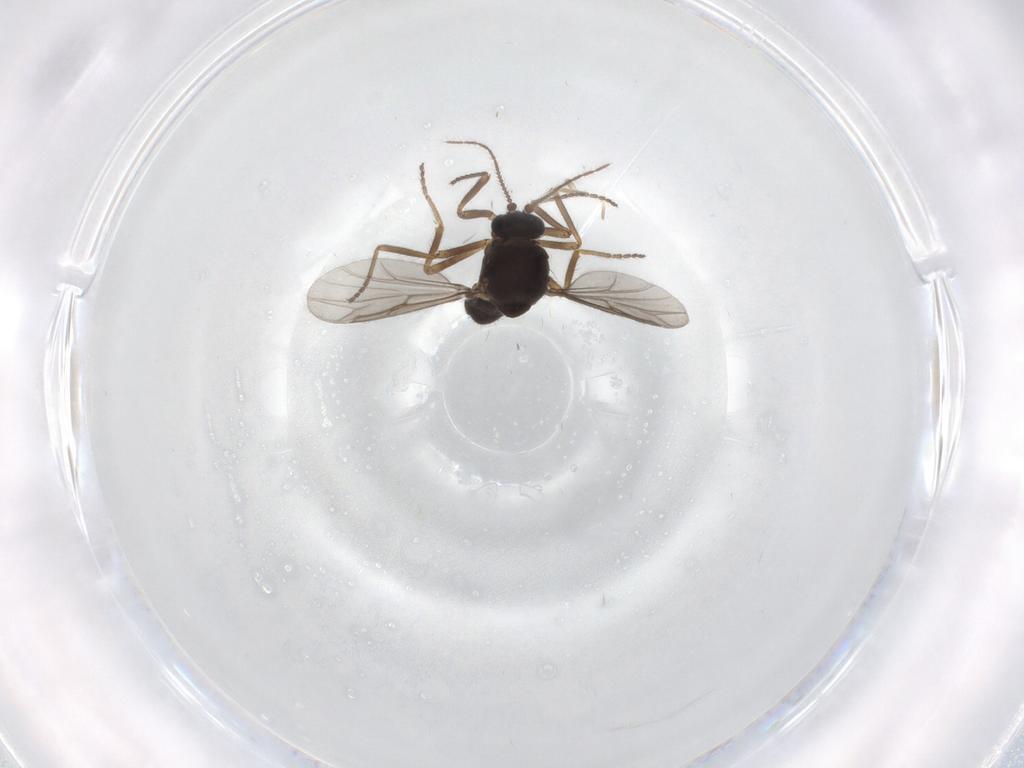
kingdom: Animalia
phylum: Arthropoda
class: Insecta
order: Diptera
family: Ceratopogonidae
